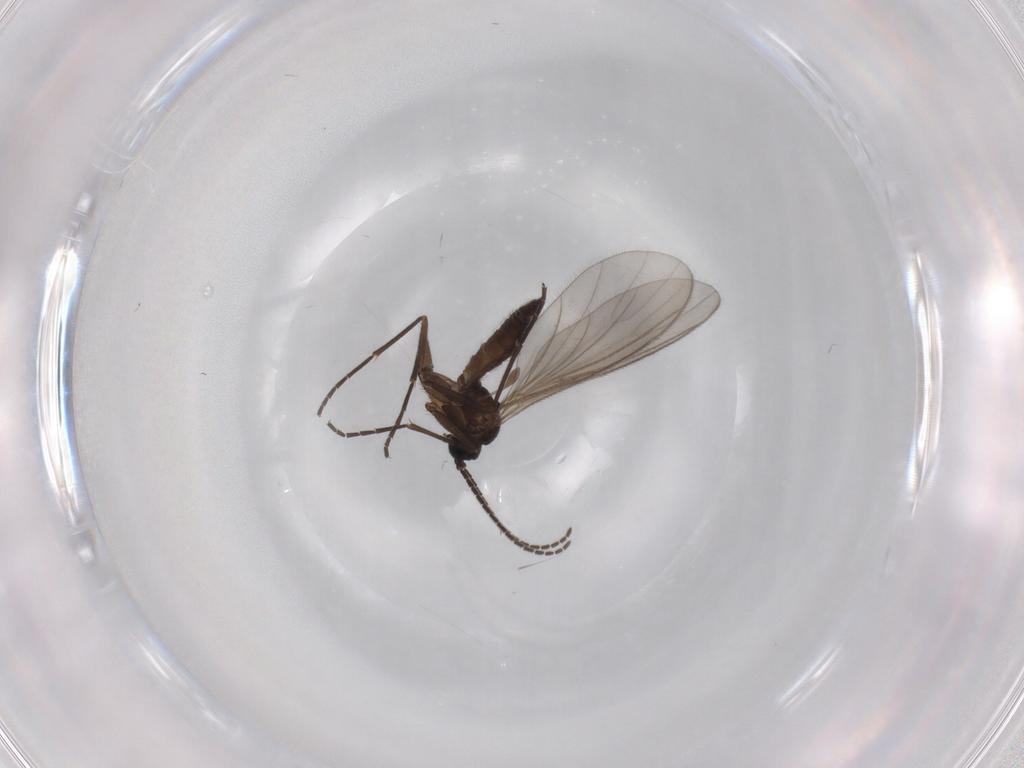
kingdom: Animalia
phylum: Arthropoda
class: Insecta
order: Diptera
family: Sciaridae
